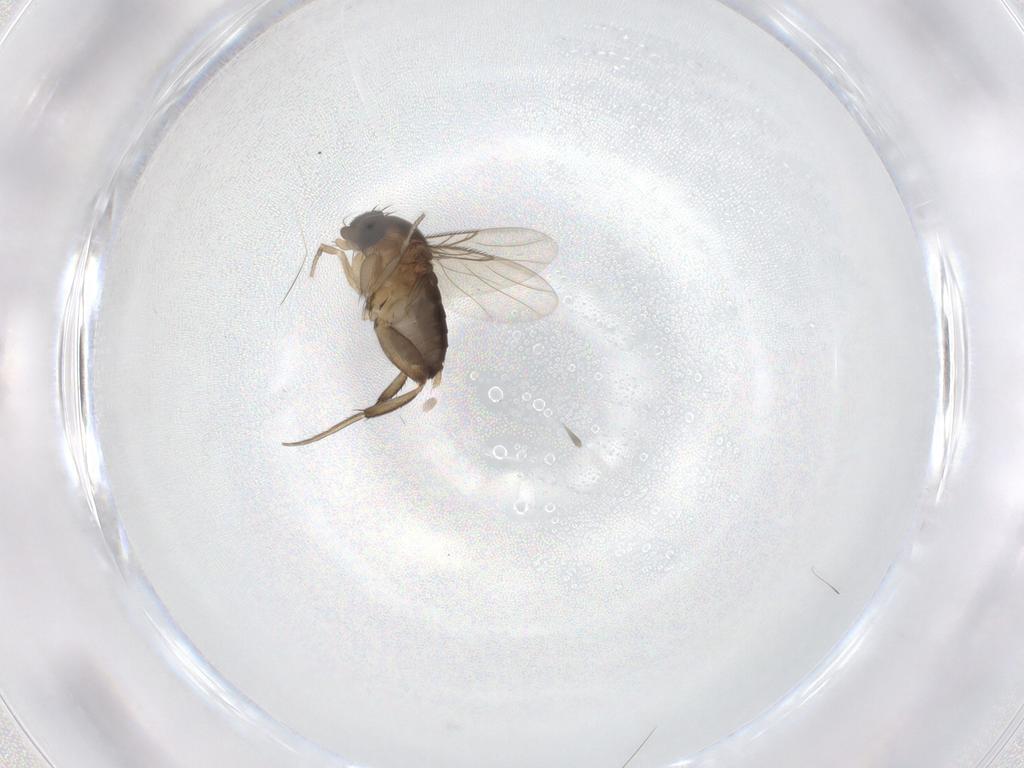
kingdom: Animalia
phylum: Arthropoda
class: Insecta
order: Diptera
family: Phoridae
